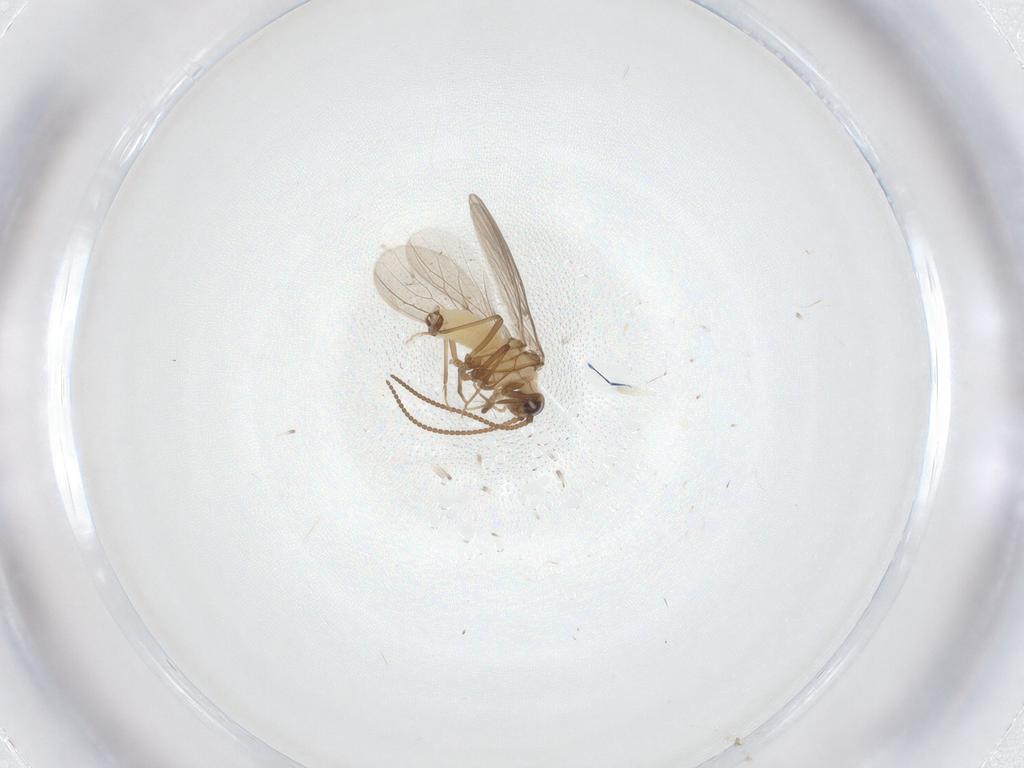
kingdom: Animalia
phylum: Arthropoda
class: Insecta
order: Neuroptera
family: Coniopterygidae
